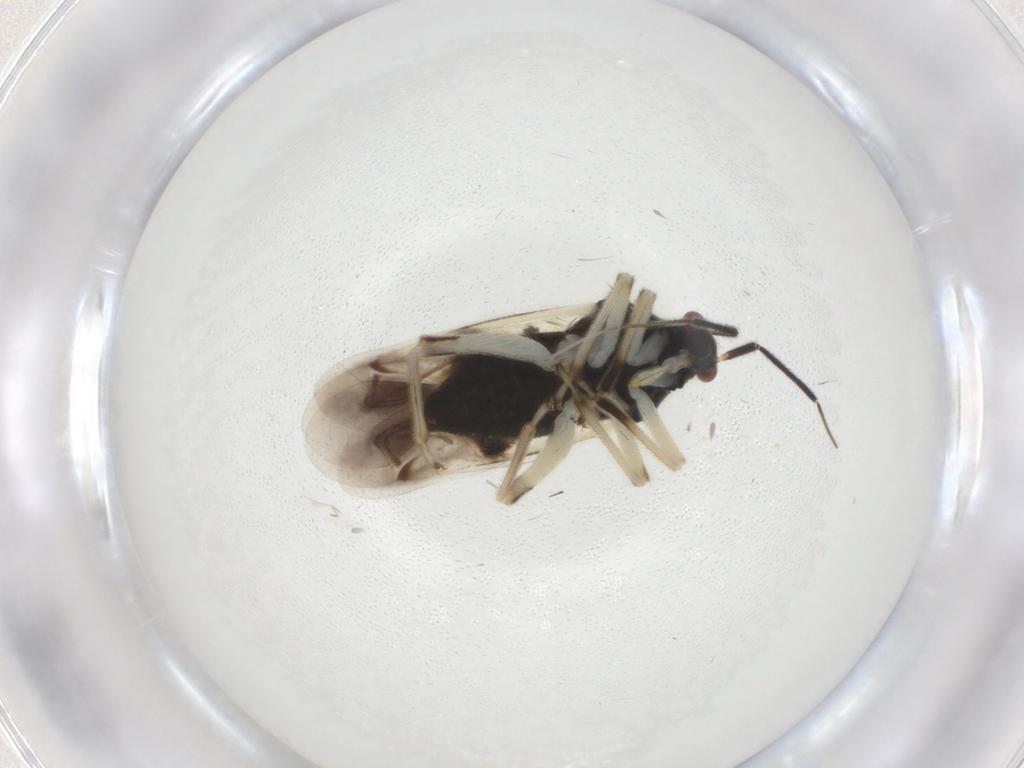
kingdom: Animalia
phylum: Arthropoda
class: Insecta
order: Hemiptera
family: Miridae
